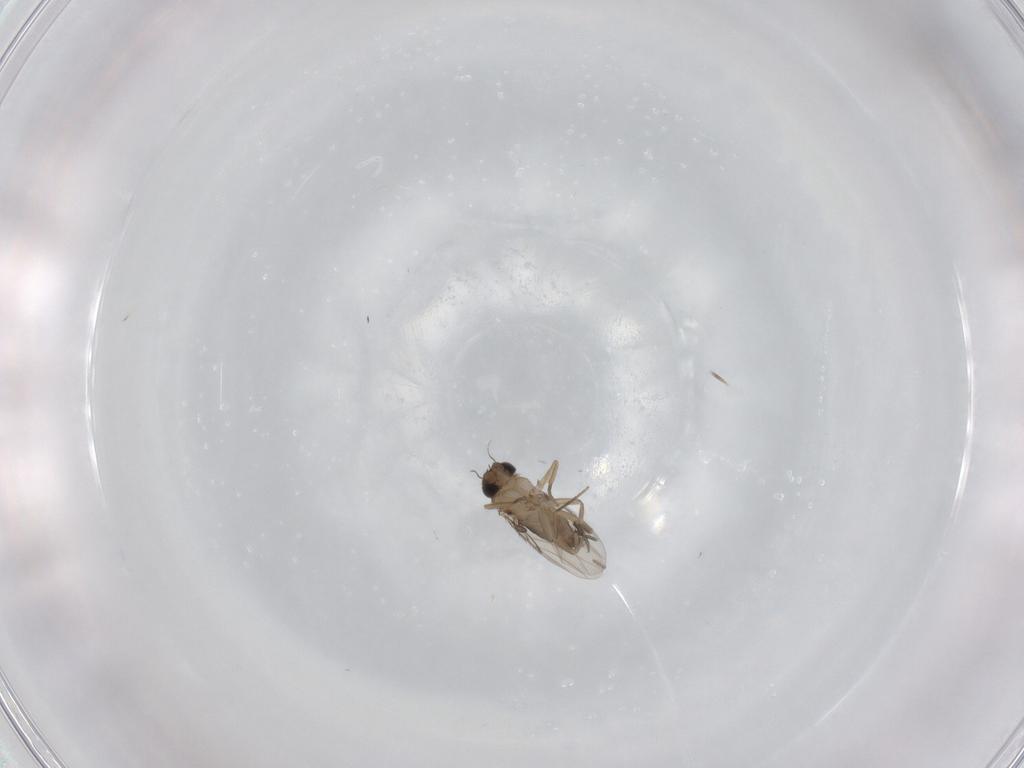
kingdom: Animalia
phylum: Arthropoda
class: Insecta
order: Diptera
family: Phoridae
